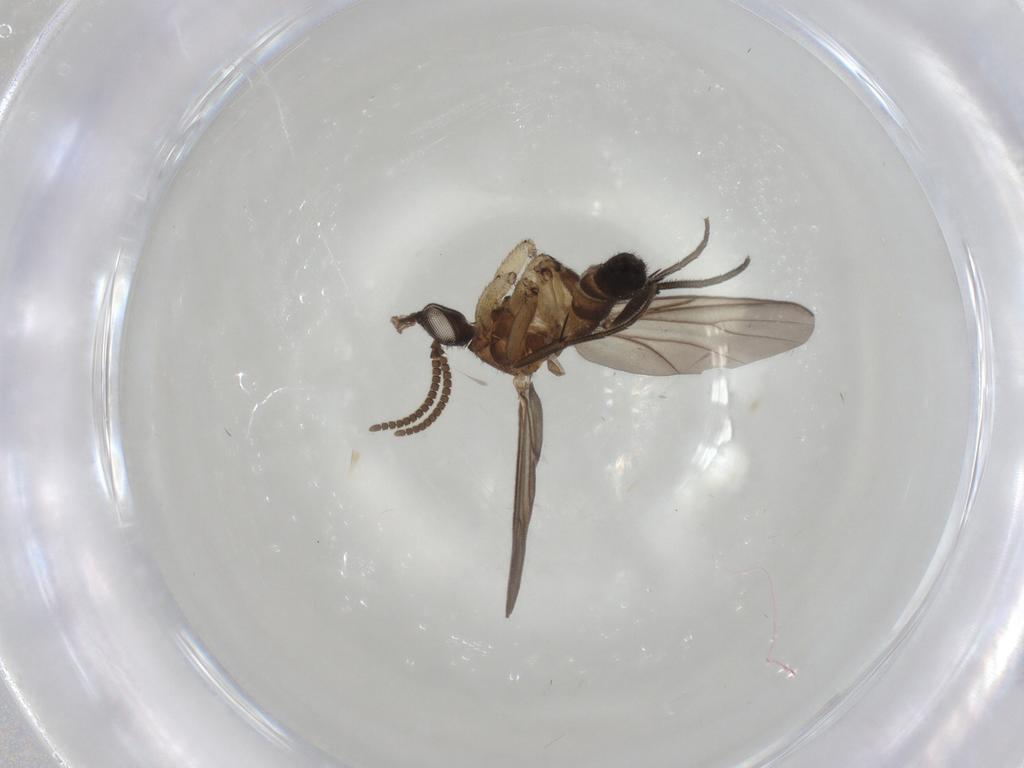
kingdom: Animalia
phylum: Arthropoda
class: Insecta
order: Diptera
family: Mycetophilidae
